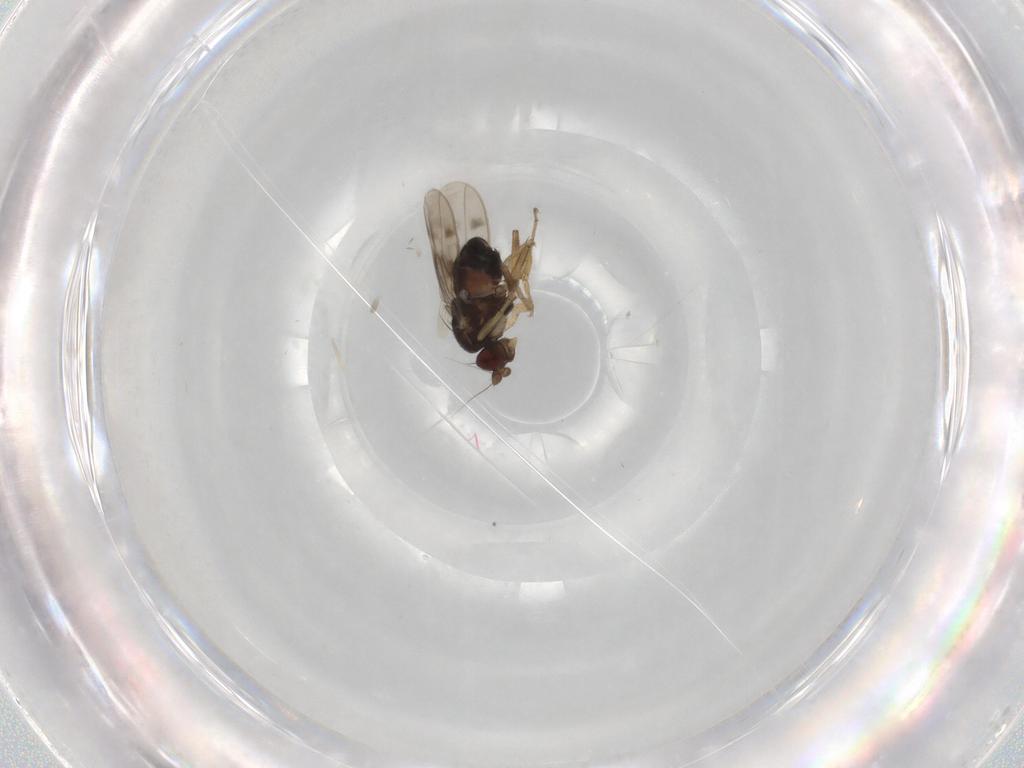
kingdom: Animalia
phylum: Arthropoda
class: Insecta
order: Diptera
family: Sphaeroceridae
